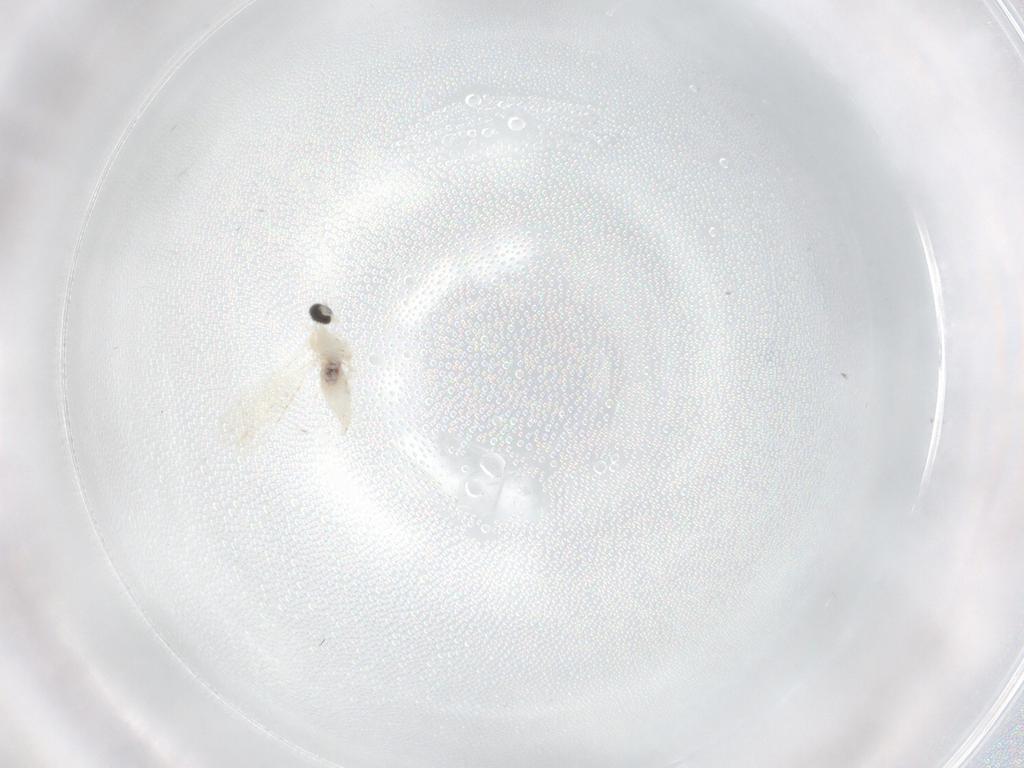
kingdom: Animalia
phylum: Arthropoda
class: Insecta
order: Diptera
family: Cecidomyiidae
